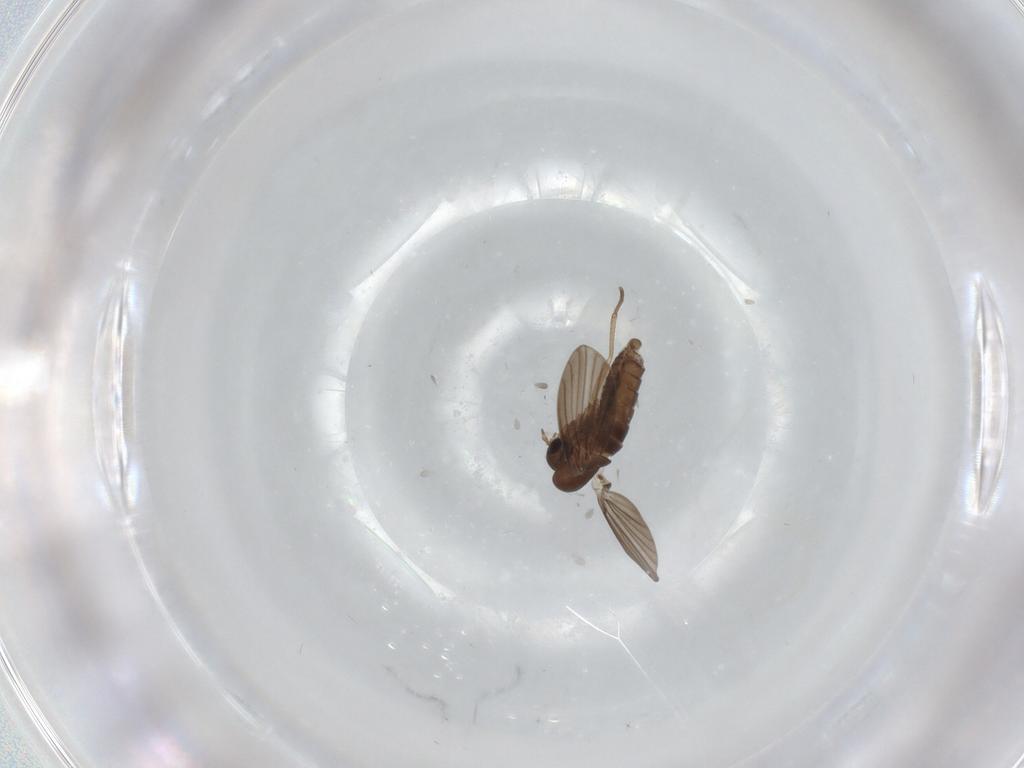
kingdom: Animalia
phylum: Arthropoda
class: Insecta
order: Diptera
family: Drosophilidae
